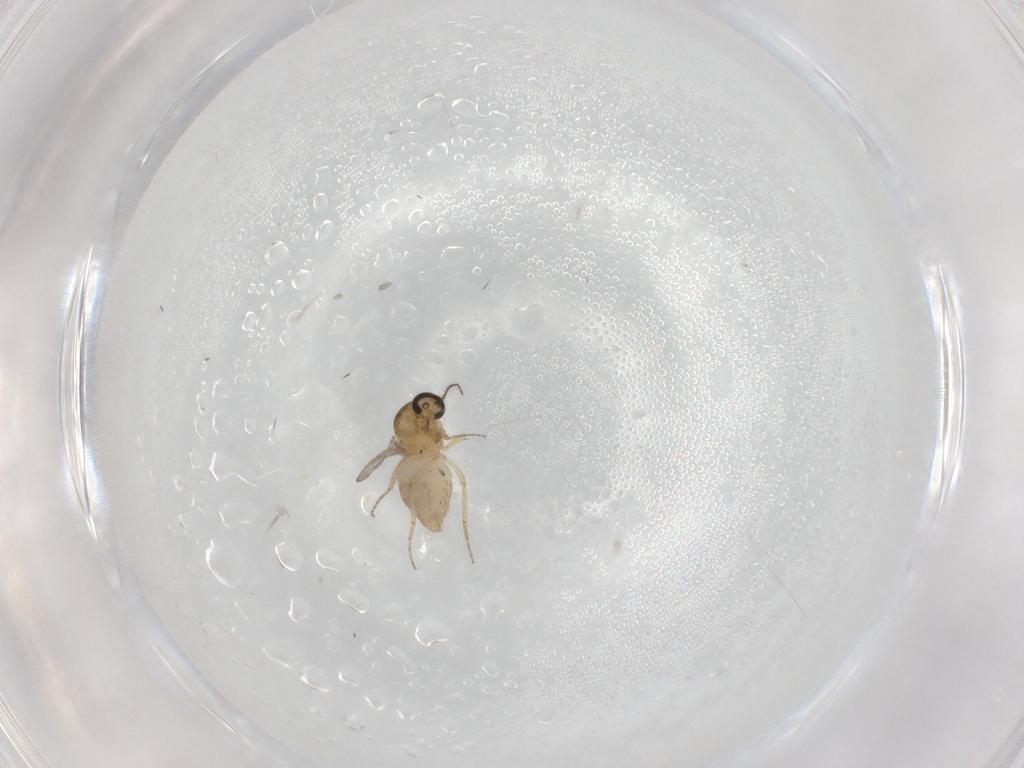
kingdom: Animalia
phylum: Arthropoda
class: Insecta
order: Diptera
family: Ceratopogonidae
